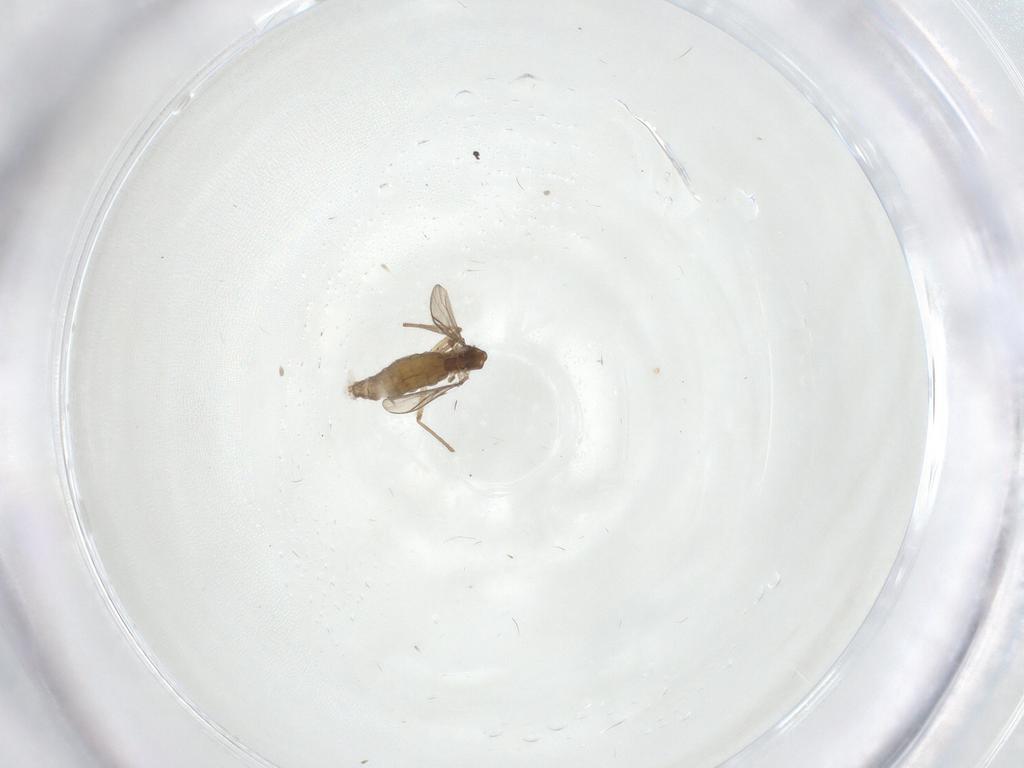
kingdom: Animalia
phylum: Arthropoda
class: Insecta
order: Diptera
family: Chironomidae
